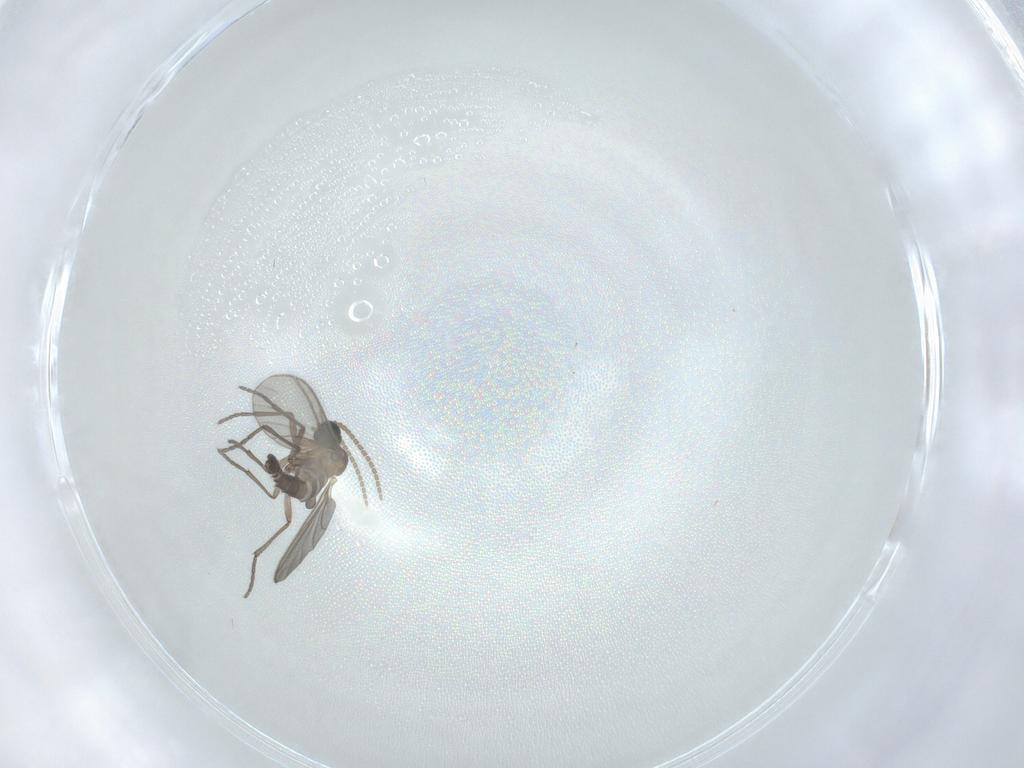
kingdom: Animalia
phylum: Arthropoda
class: Insecta
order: Diptera
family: Sciaridae
